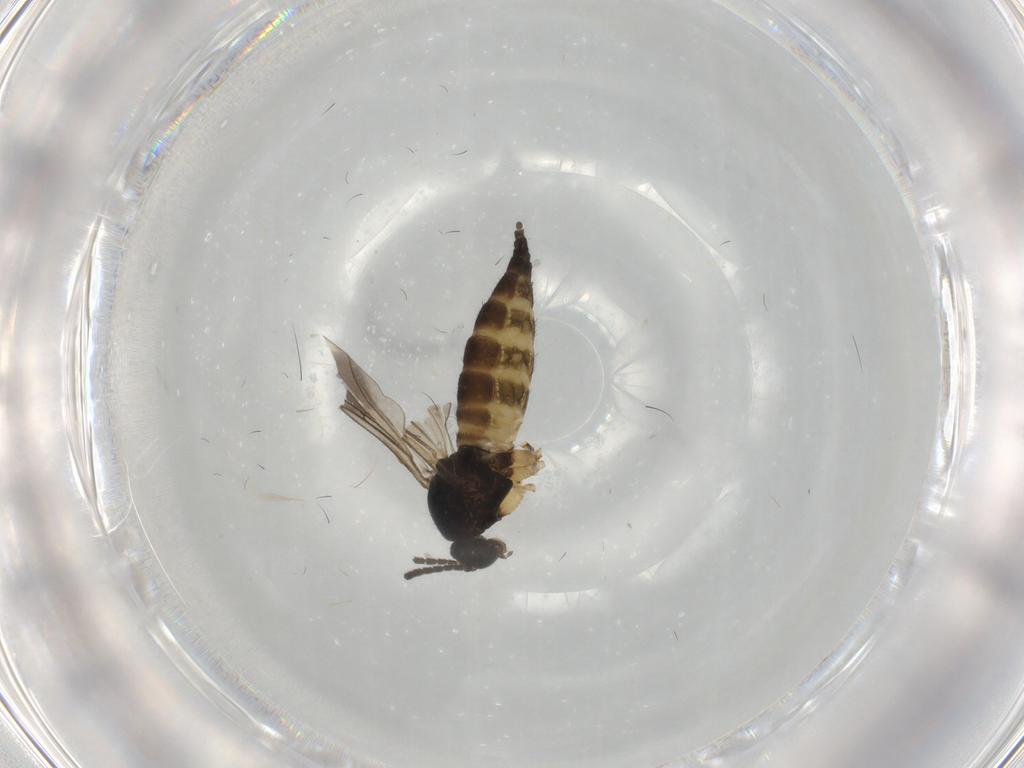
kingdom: Animalia
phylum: Arthropoda
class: Insecta
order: Diptera
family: Sciaridae
